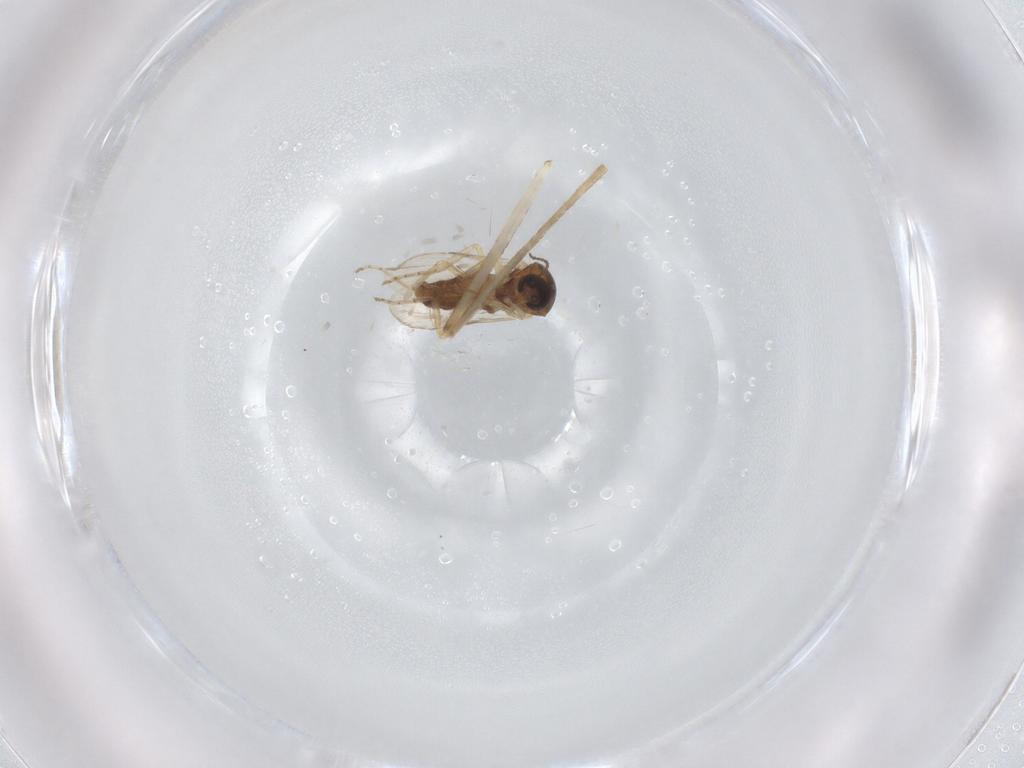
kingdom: Animalia
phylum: Arthropoda
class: Insecta
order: Diptera
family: Ceratopogonidae
